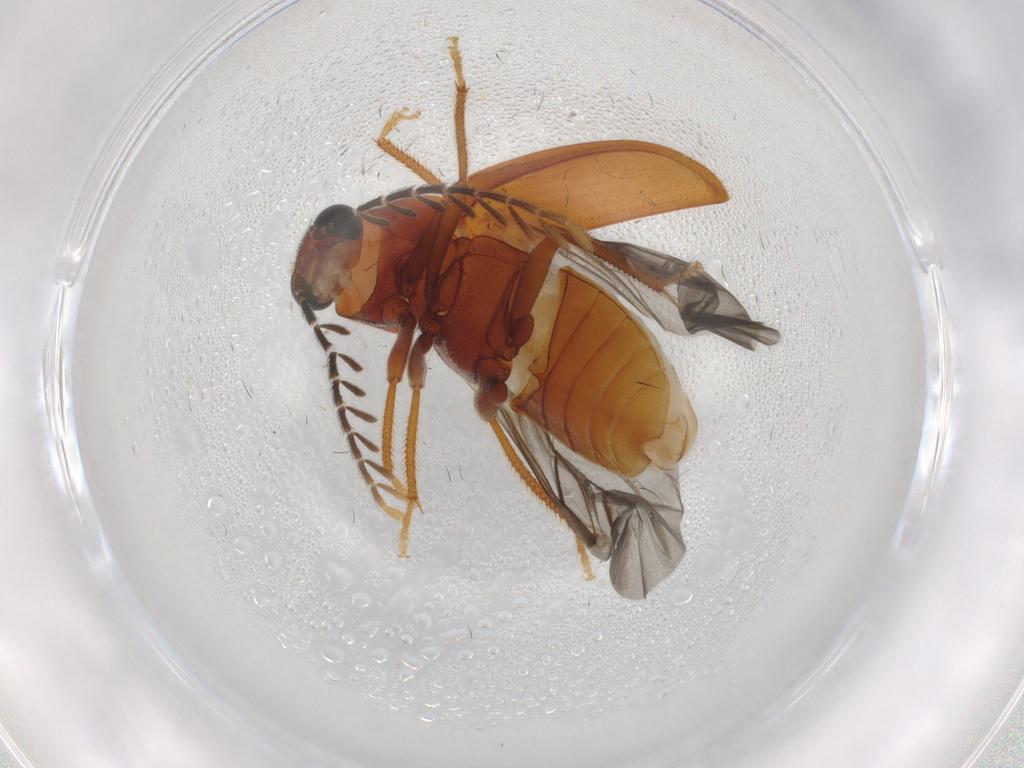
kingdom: Animalia
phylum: Arthropoda
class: Insecta
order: Coleoptera
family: Ptilodactylidae
